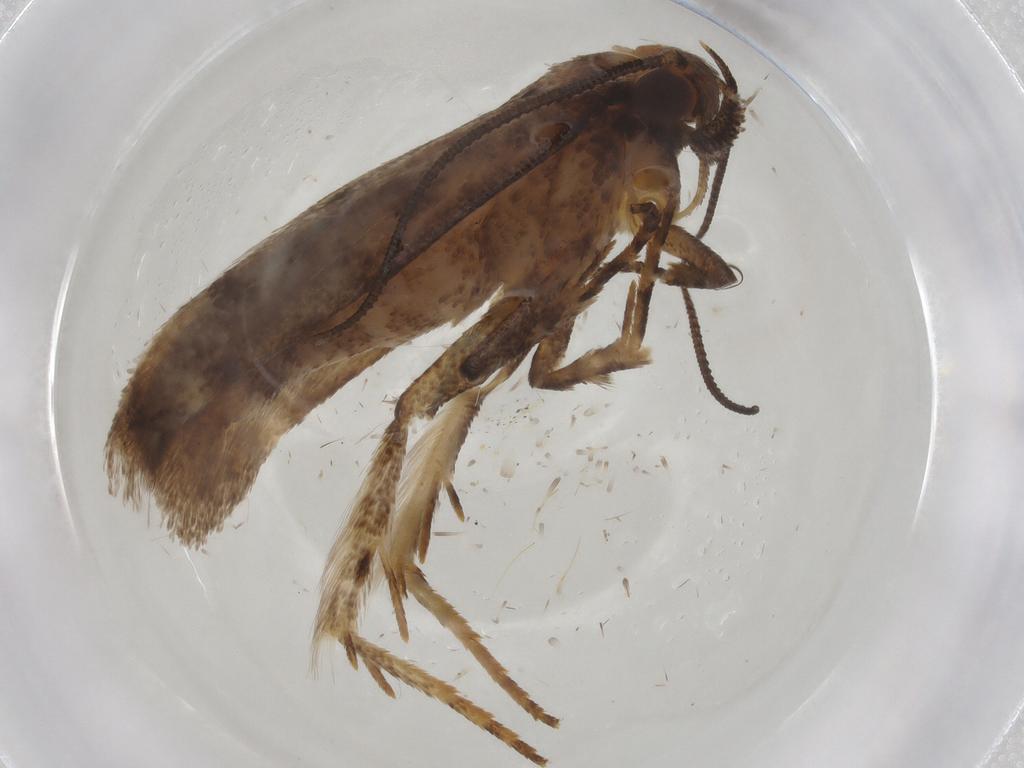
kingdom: Animalia
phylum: Arthropoda
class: Insecta
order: Lepidoptera
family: Gelechiidae
